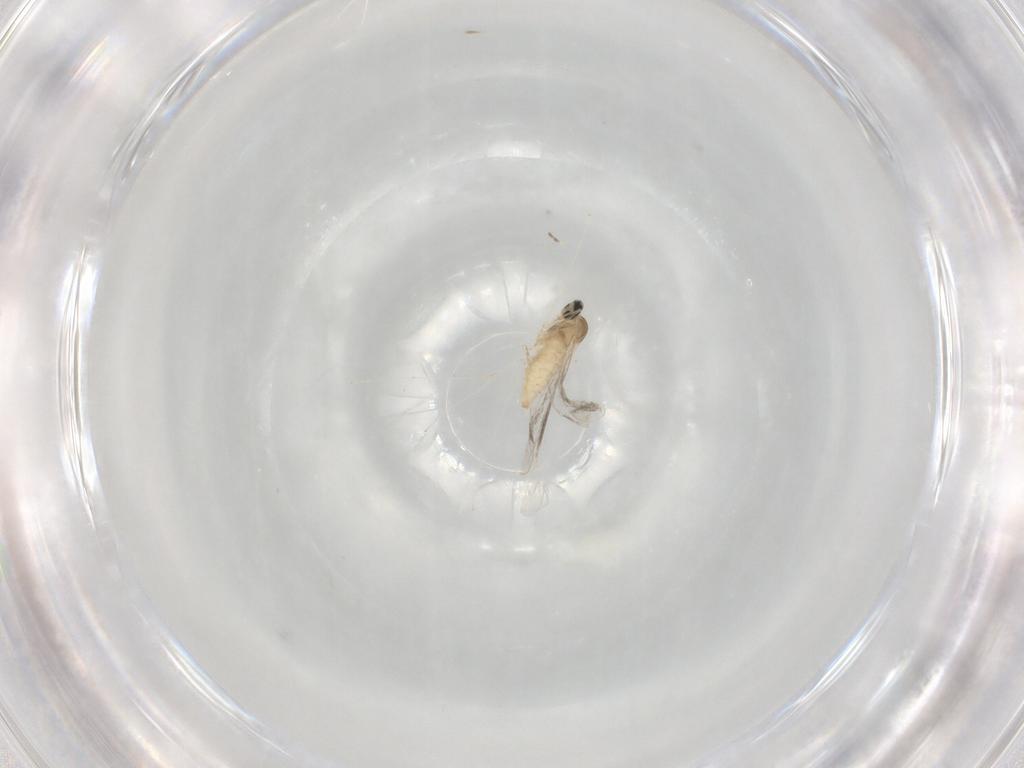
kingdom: Animalia
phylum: Arthropoda
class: Insecta
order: Diptera
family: Cecidomyiidae
